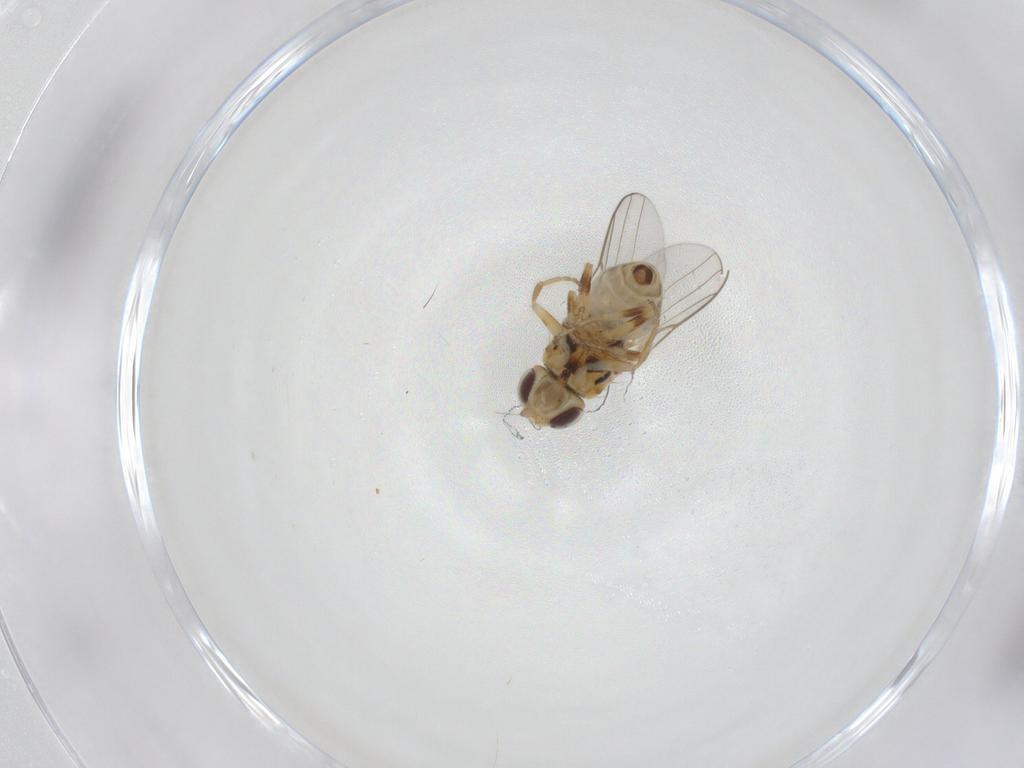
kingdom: Animalia
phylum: Arthropoda
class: Insecta
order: Diptera
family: Chloropidae
